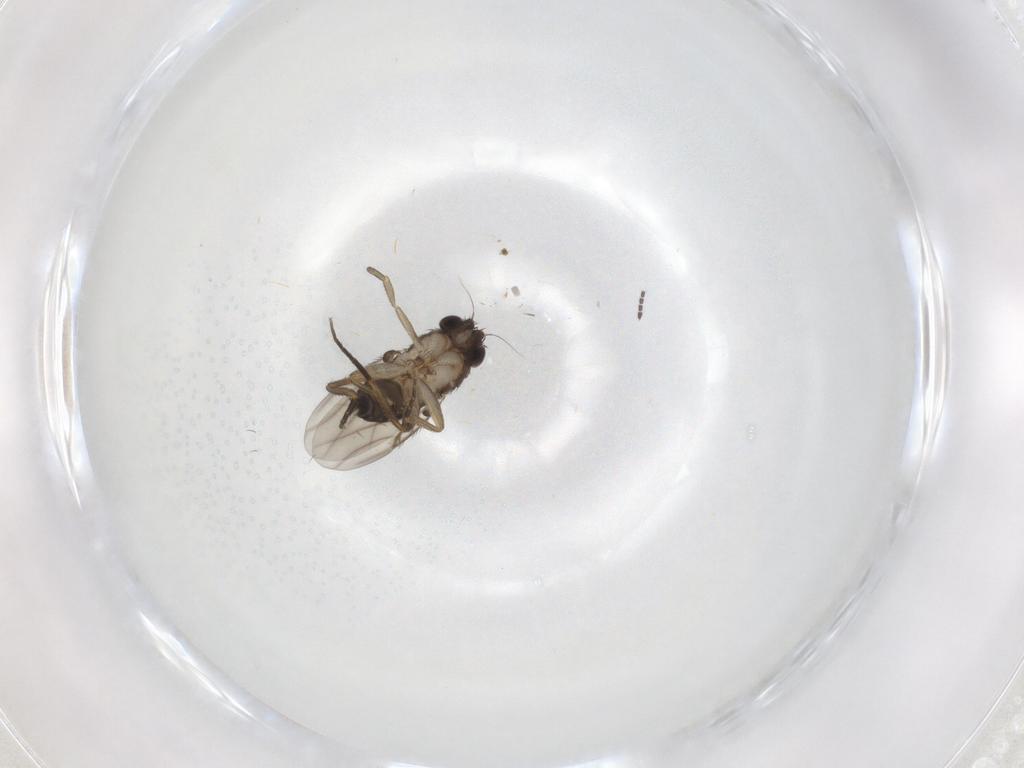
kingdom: Animalia
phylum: Arthropoda
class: Insecta
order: Diptera
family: Phoridae
